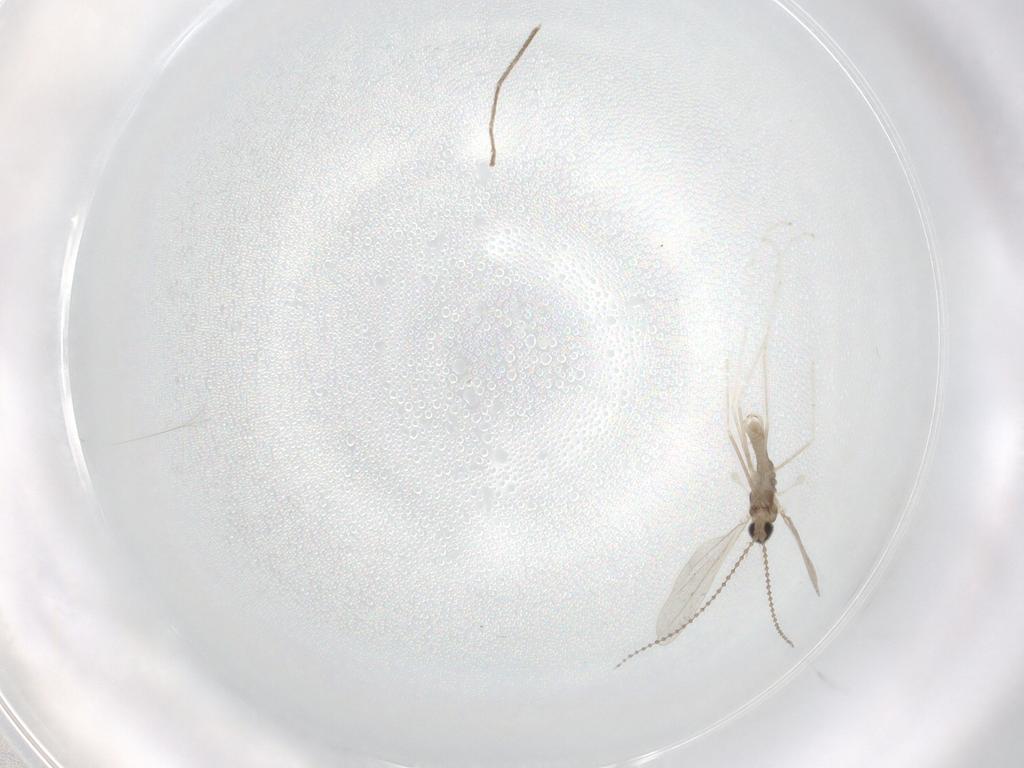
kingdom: Animalia
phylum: Arthropoda
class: Insecta
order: Diptera
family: Cecidomyiidae
